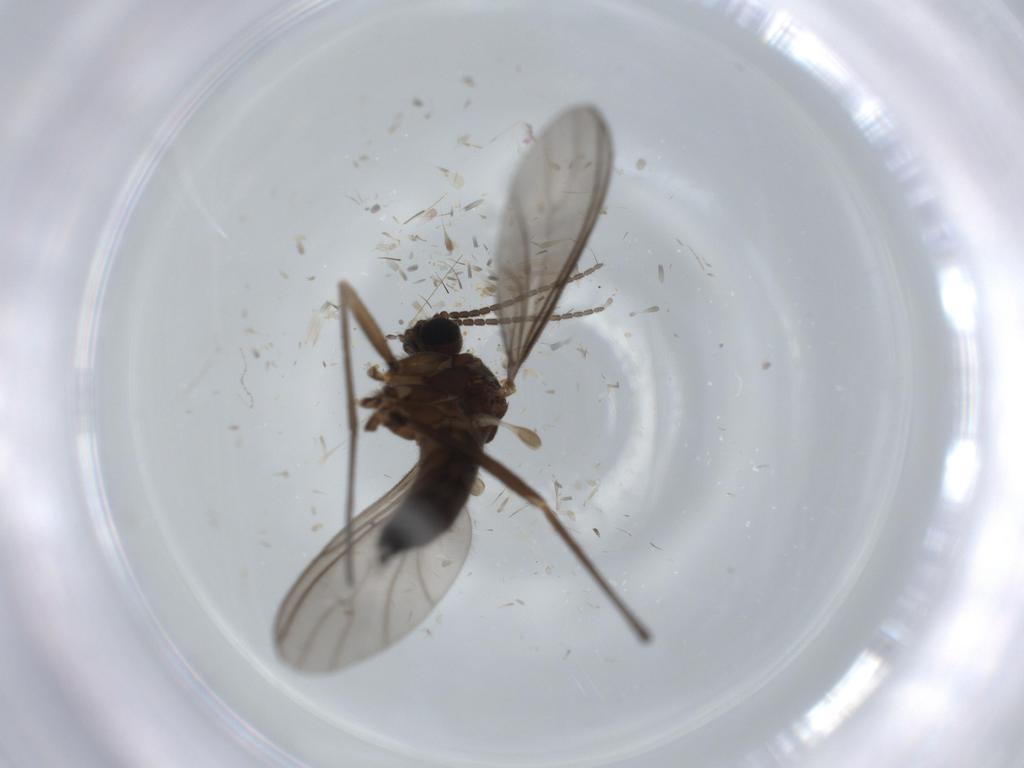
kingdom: Animalia
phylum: Arthropoda
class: Insecta
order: Diptera
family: Sciaridae
